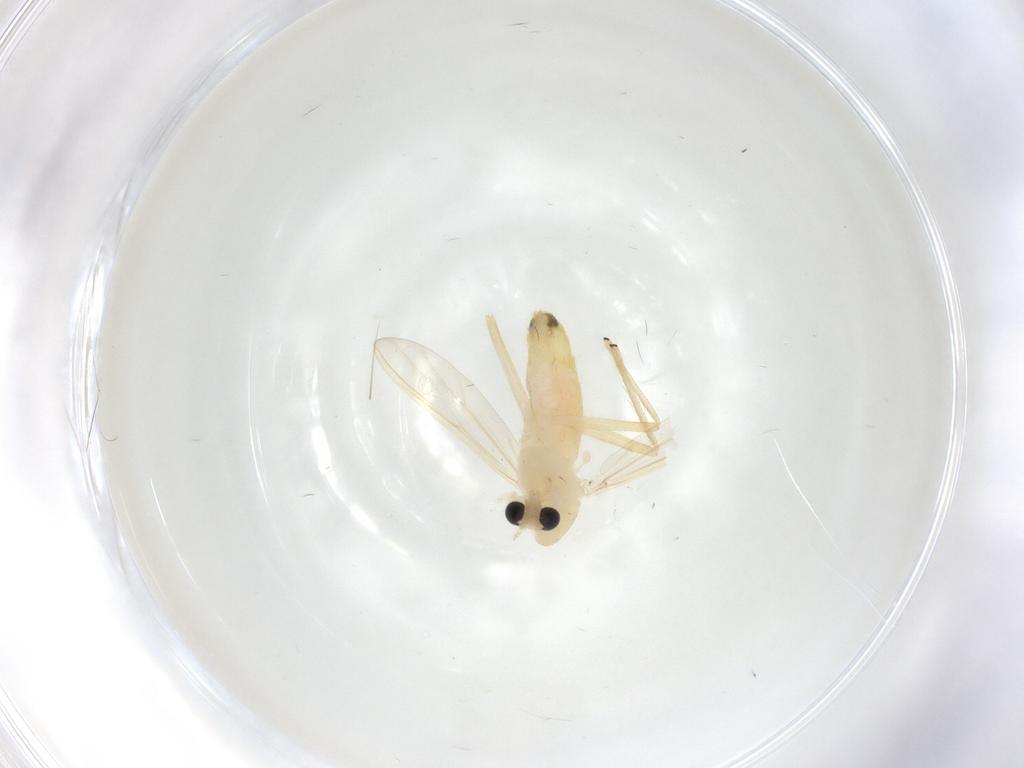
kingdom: Animalia
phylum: Arthropoda
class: Insecta
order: Diptera
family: Chironomidae
